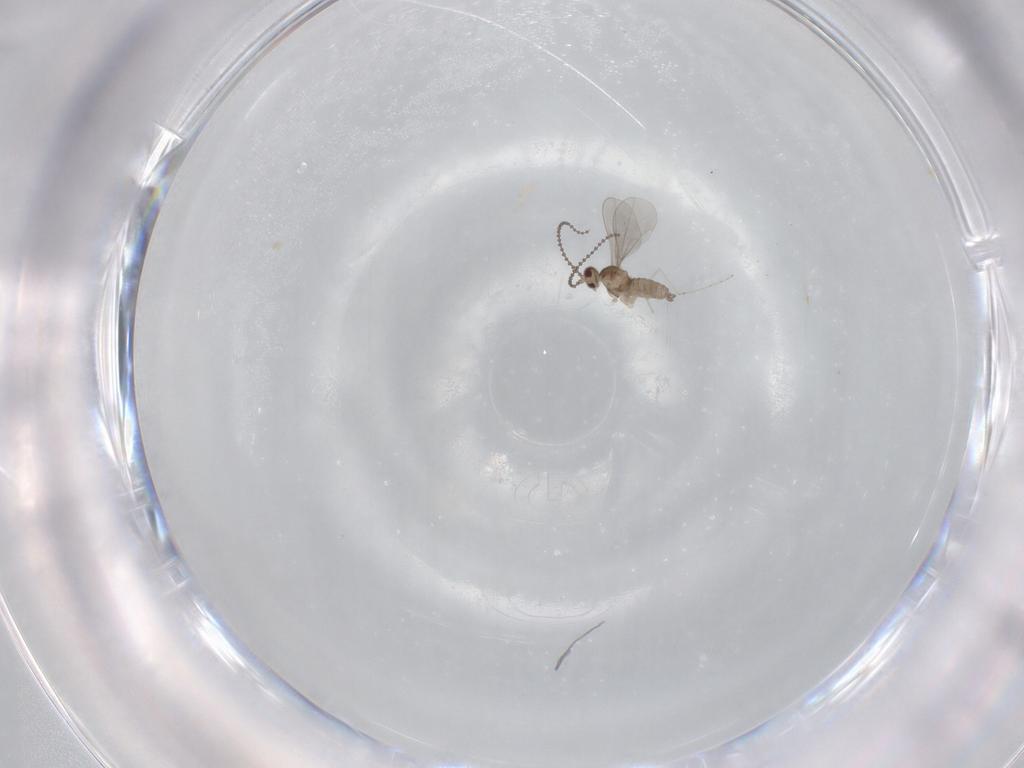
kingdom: Animalia
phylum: Arthropoda
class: Insecta
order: Diptera
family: Cecidomyiidae
